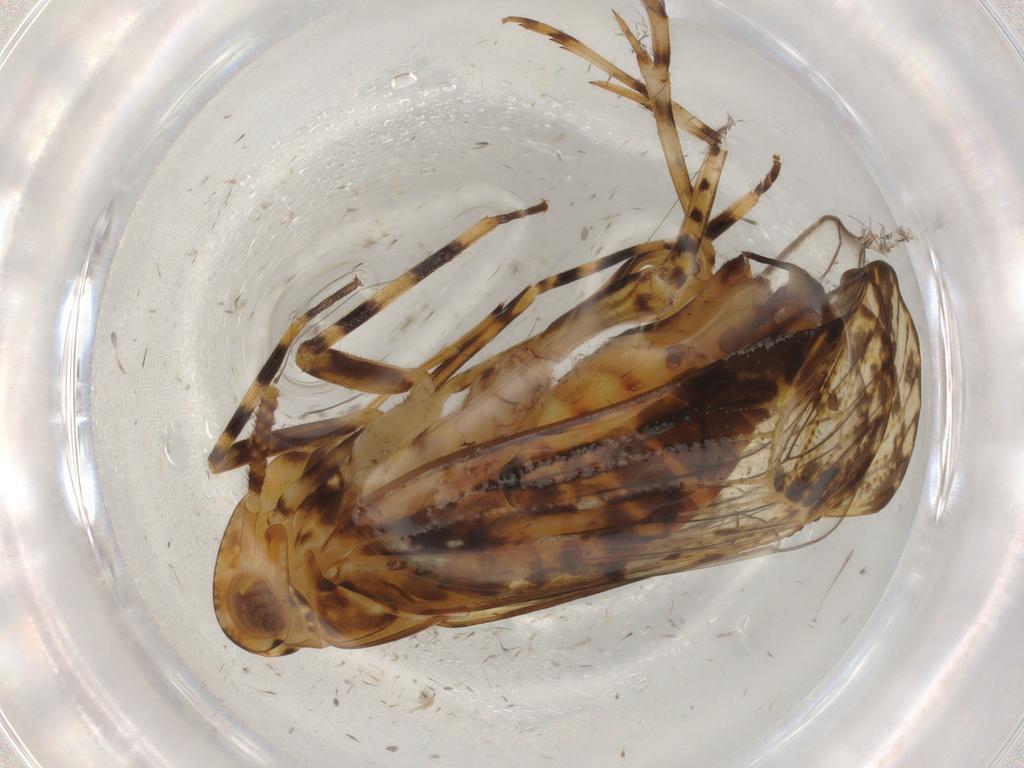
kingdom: Animalia
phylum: Arthropoda
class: Insecta
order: Hemiptera
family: Delphacidae
